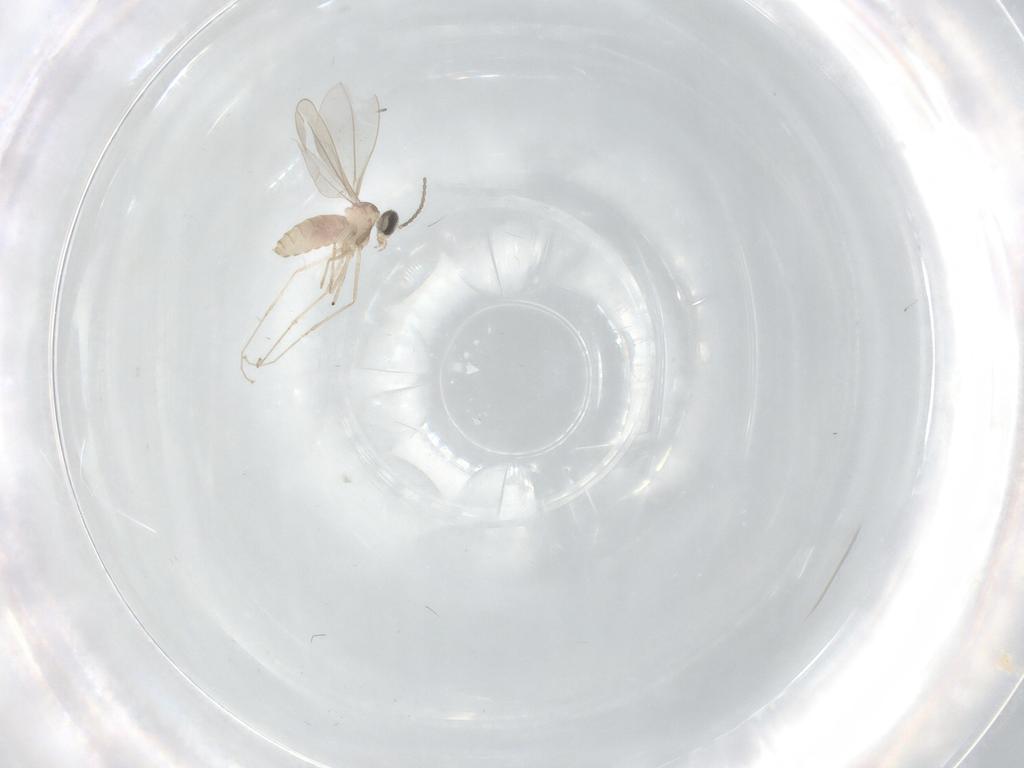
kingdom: Animalia
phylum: Arthropoda
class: Insecta
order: Diptera
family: Cecidomyiidae
